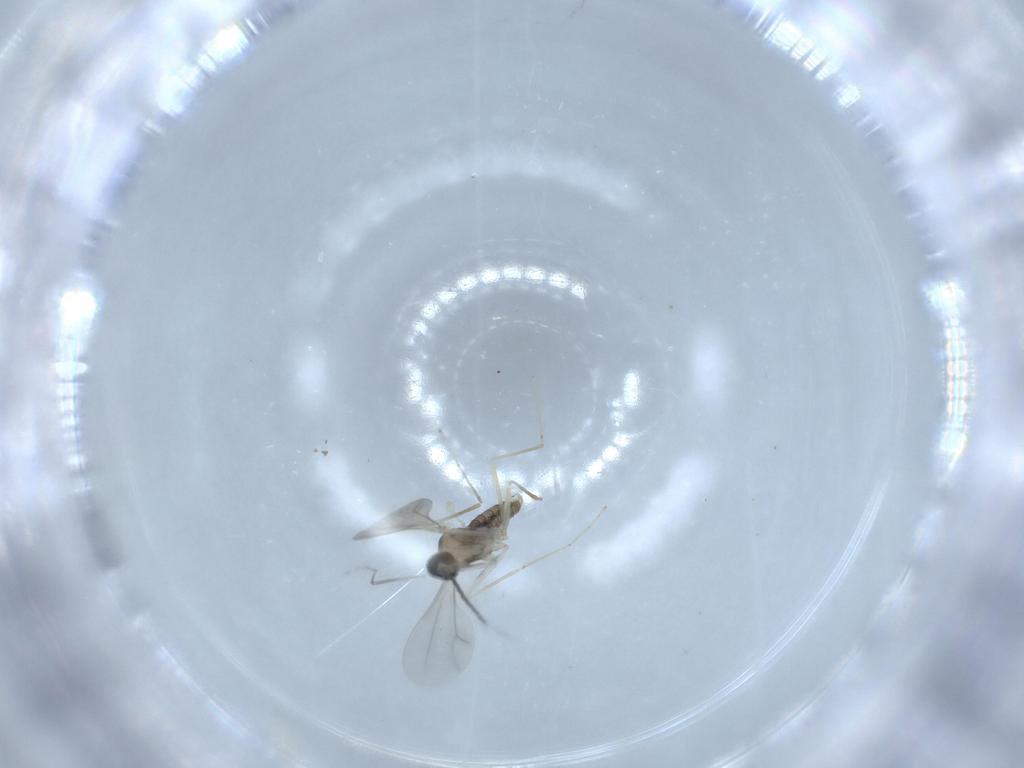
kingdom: Animalia
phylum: Arthropoda
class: Insecta
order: Diptera
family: Cecidomyiidae
